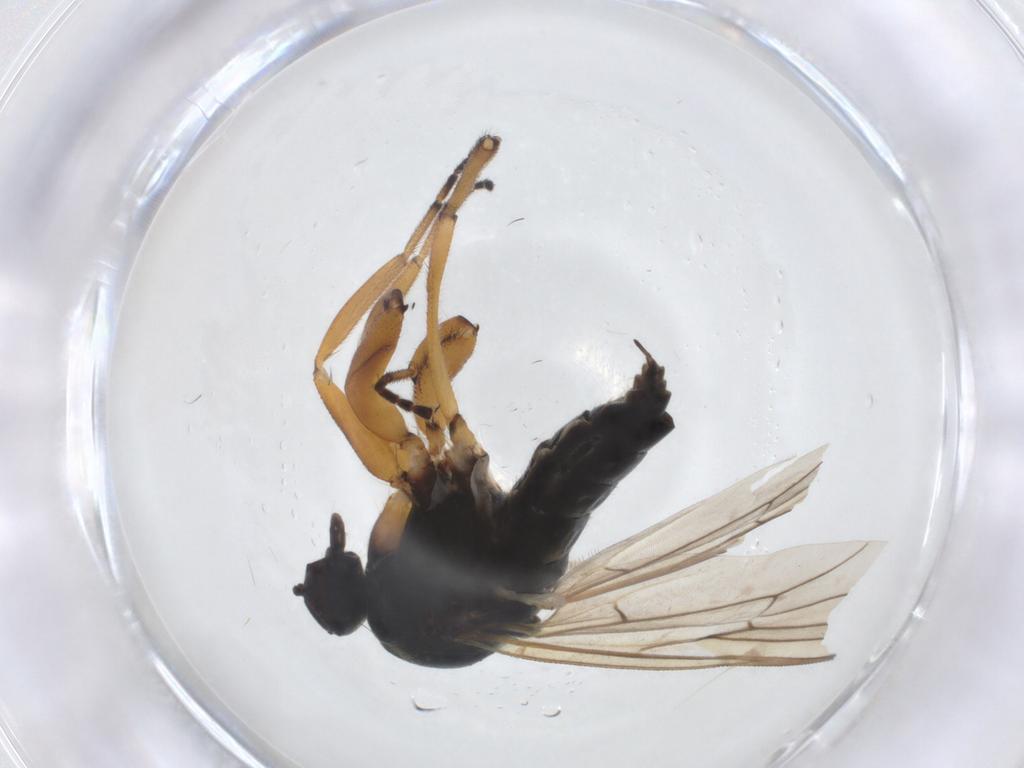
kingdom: Animalia
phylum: Arthropoda
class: Insecta
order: Diptera
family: Hybotidae
